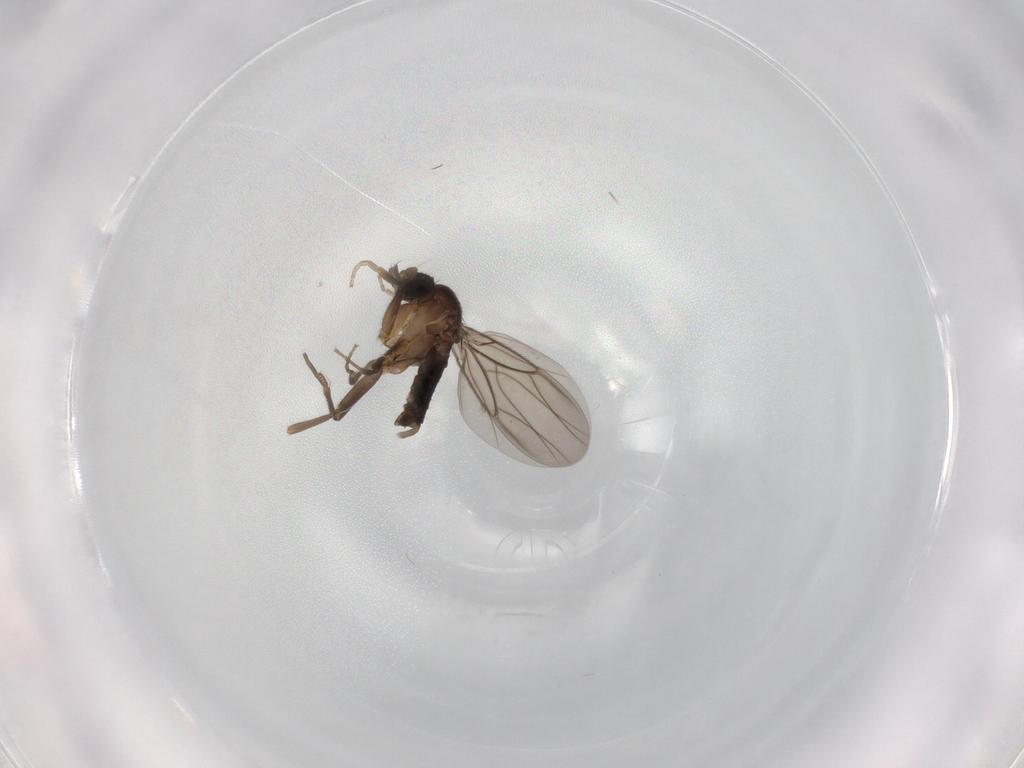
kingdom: Animalia
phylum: Arthropoda
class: Insecta
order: Diptera
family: Phoridae
